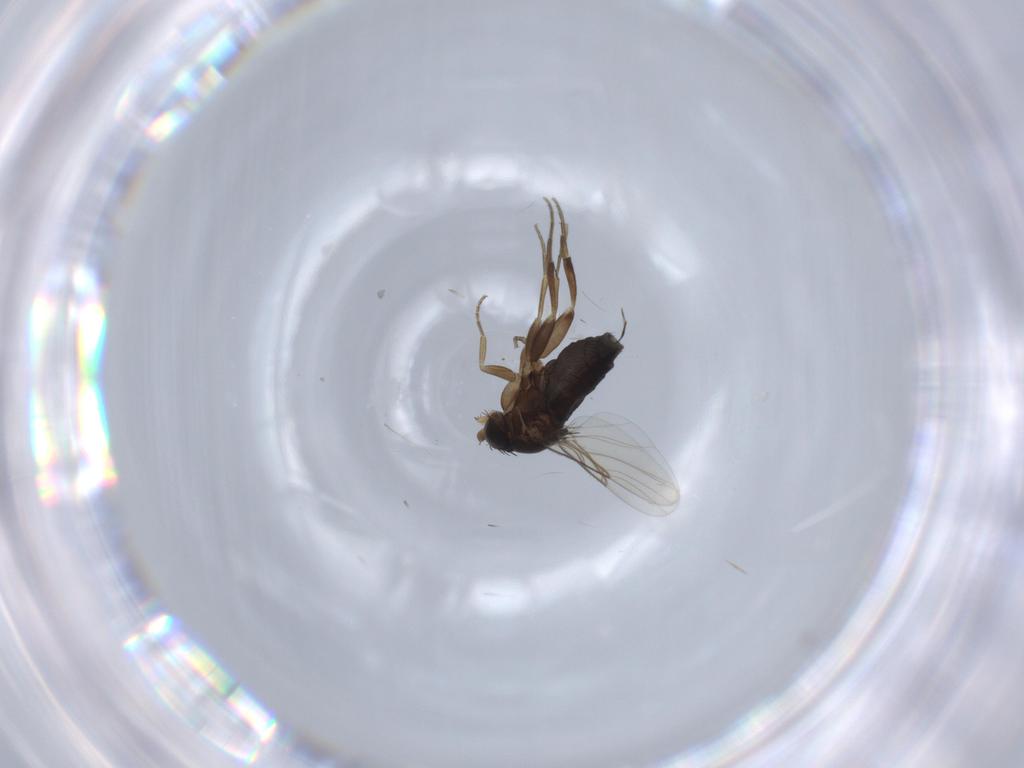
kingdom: Animalia
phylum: Arthropoda
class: Insecta
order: Diptera
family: Phoridae
